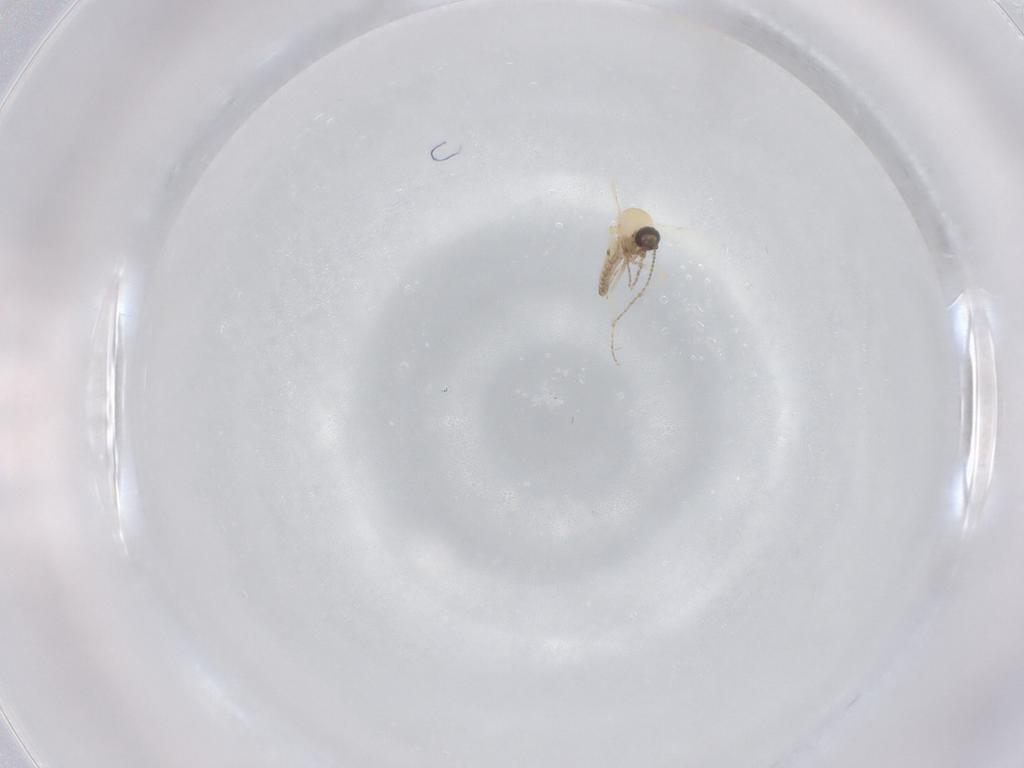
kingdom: Animalia
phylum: Arthropoda
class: Insecta
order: Diptera
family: Ceratopogonidae
